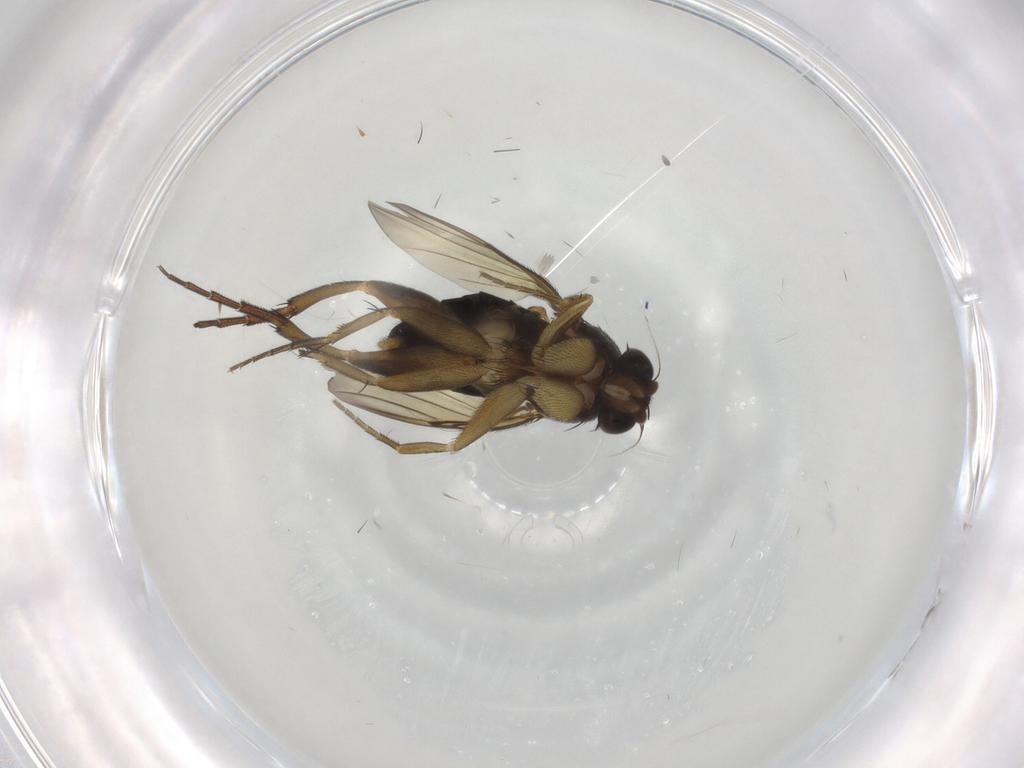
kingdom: Animalia
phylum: Arthropoda
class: Insecta
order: Diptera
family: Phoridae
